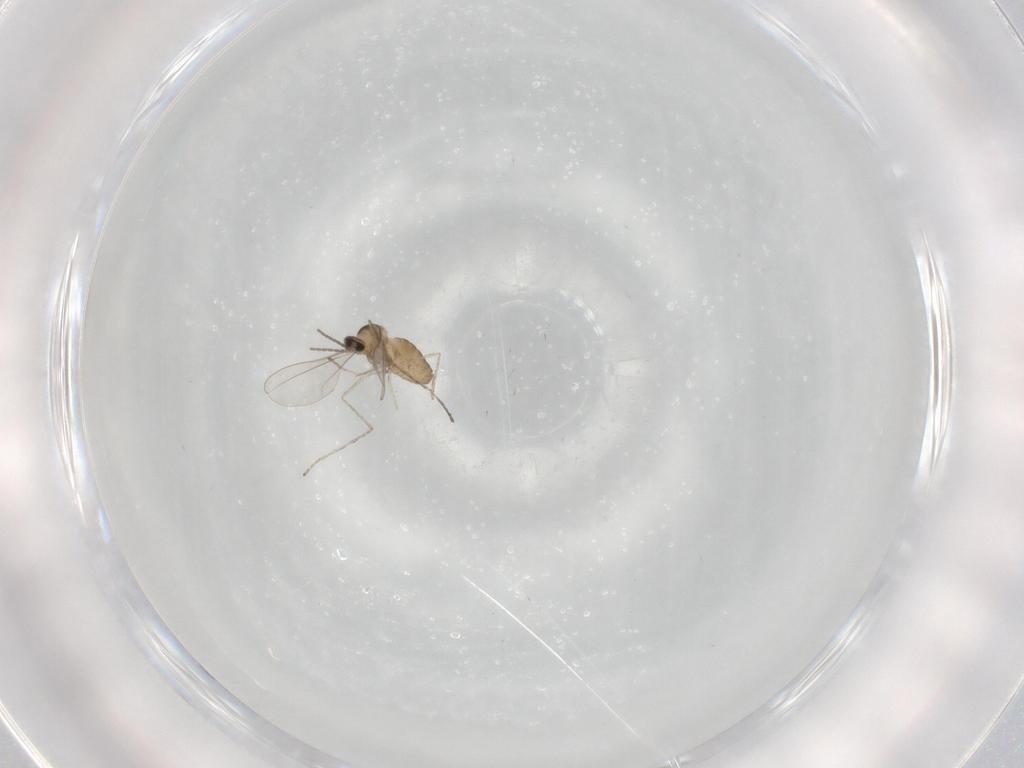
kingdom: Animalia
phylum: Arthropoda
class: Insecta
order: Diptera
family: Cecidomyiidae
